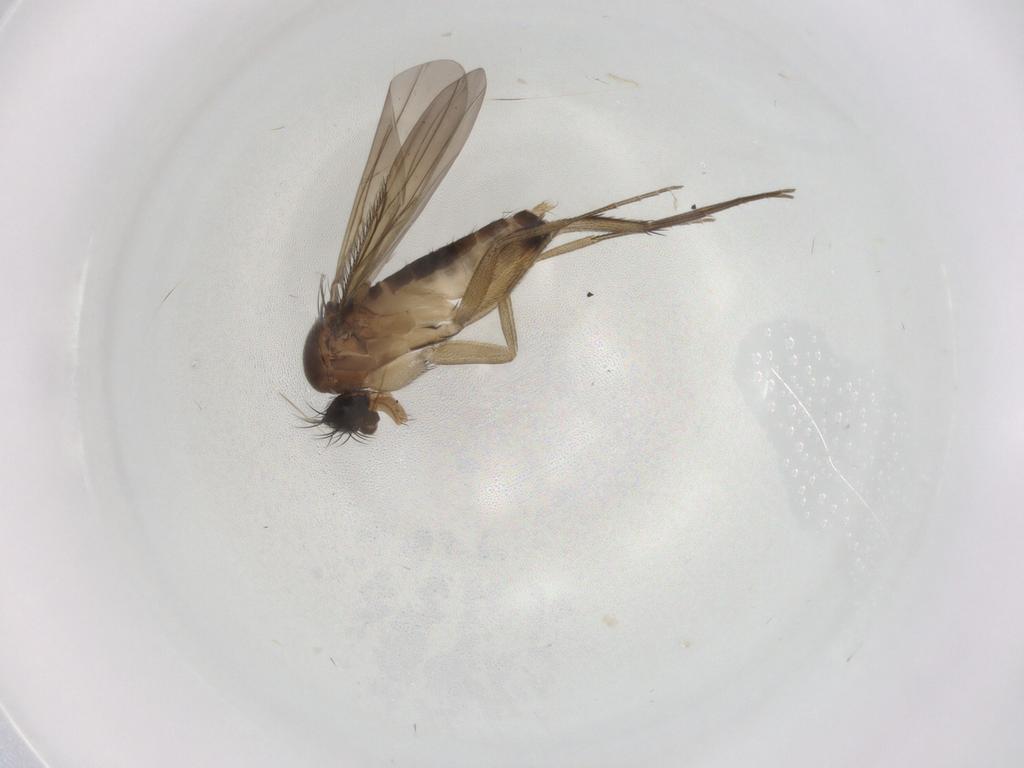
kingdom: Animalia
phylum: Arthropoda
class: Insecta
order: Diptera
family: Phoridae
